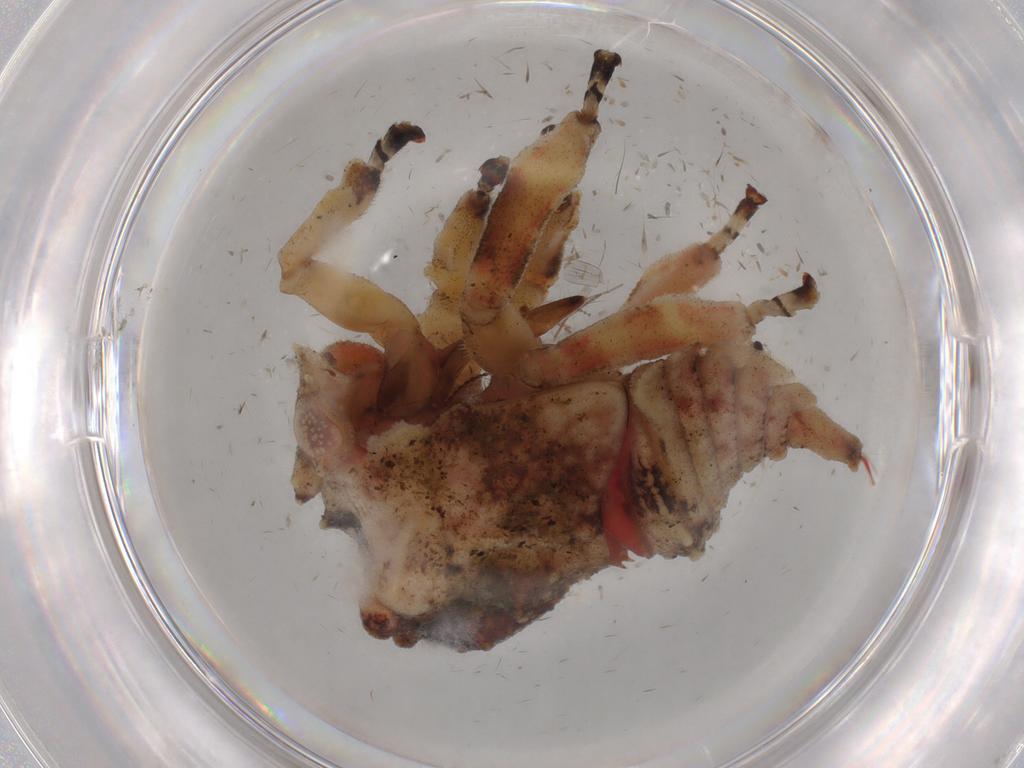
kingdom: Animalia
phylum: Arthropoda
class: Insecta
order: Hemiptera
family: Membracidae
